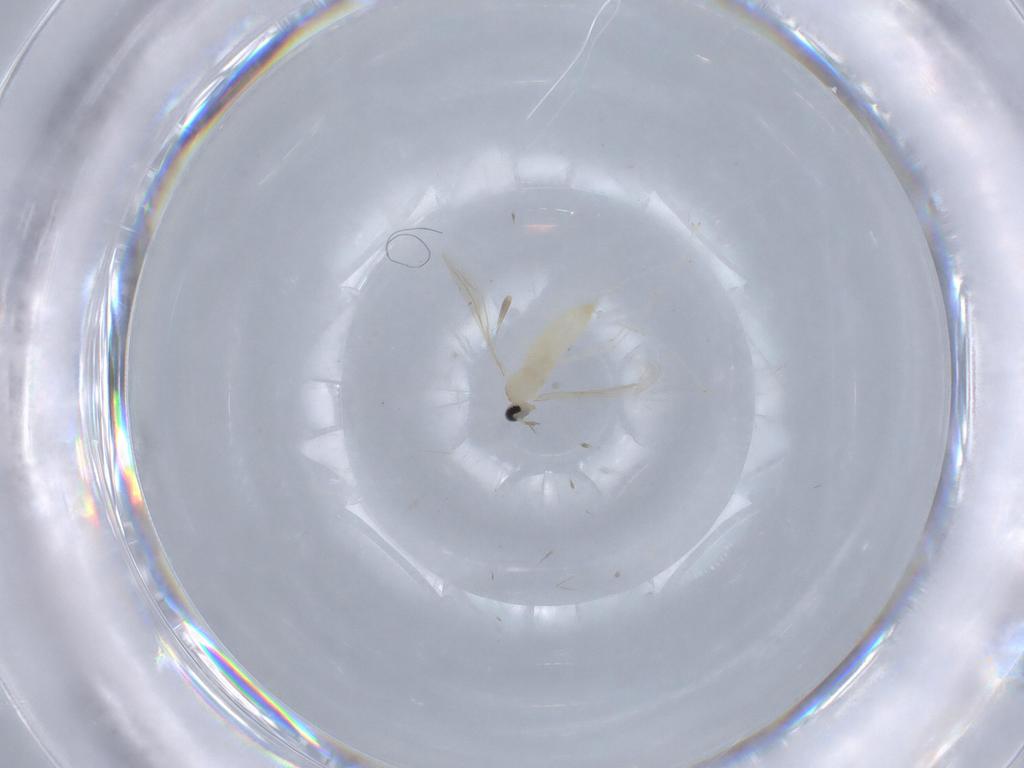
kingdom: Animalia
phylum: Arthropoda
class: Insecta
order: Diptera
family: Cecidomyiidae
